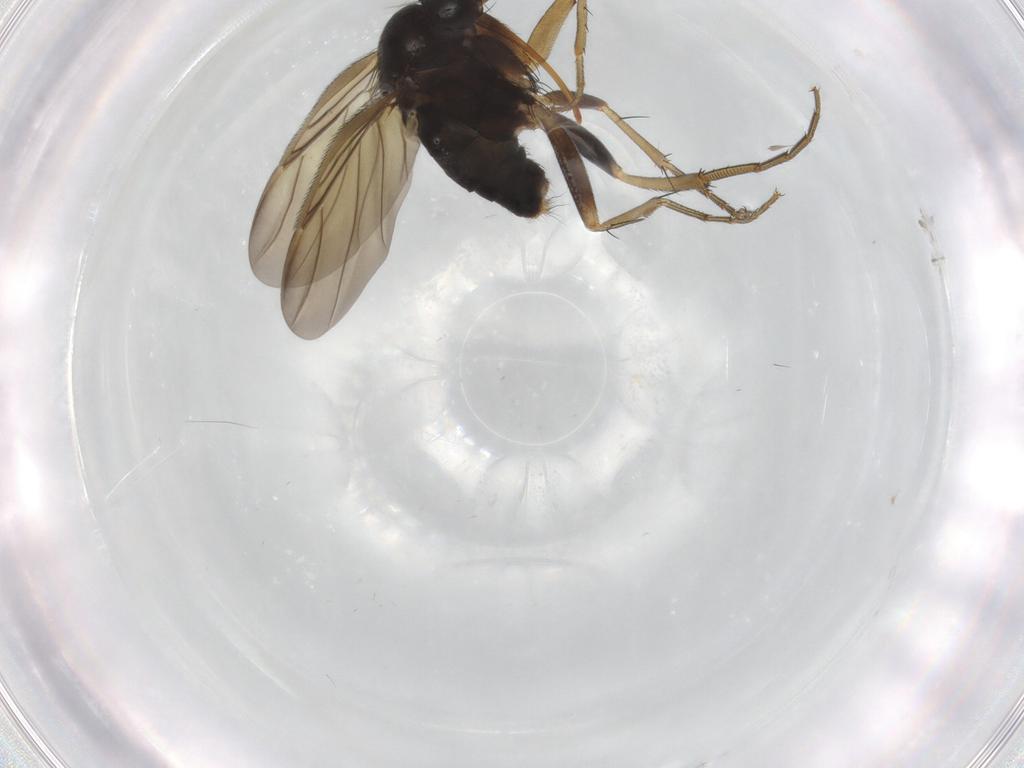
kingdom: Animalia
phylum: Arthropoda
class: Insecta
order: Diptera
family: Phoridae
